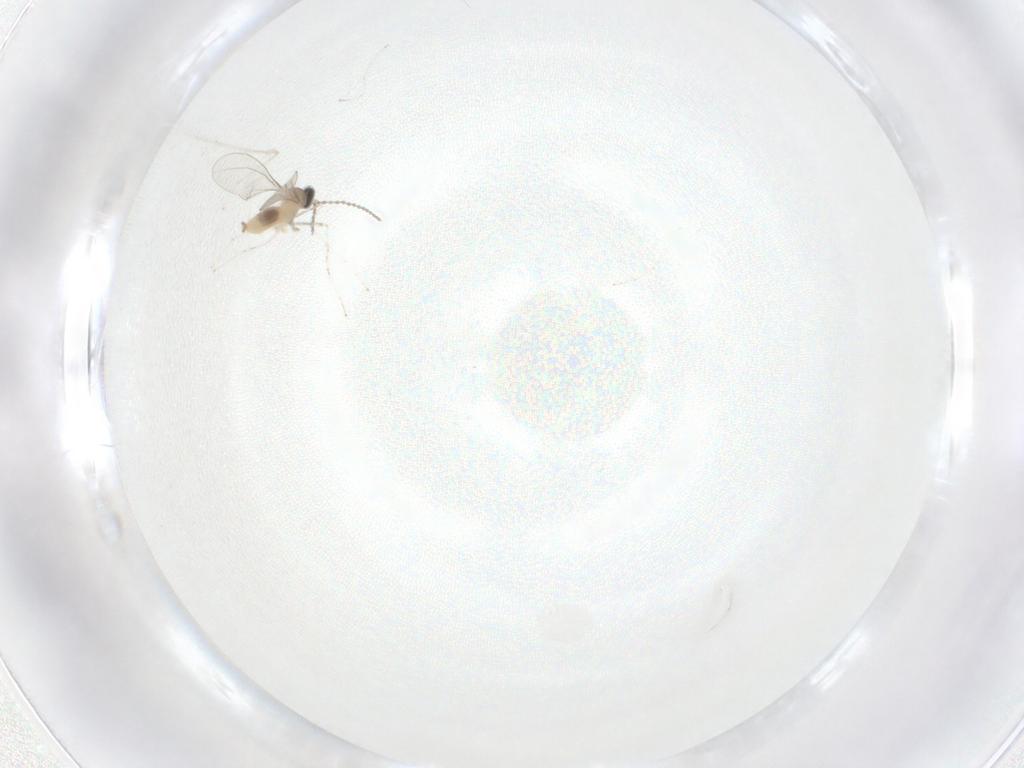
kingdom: Animalia
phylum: Arthropoda
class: Insecta
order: Diptera
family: Cecidomyiidae
